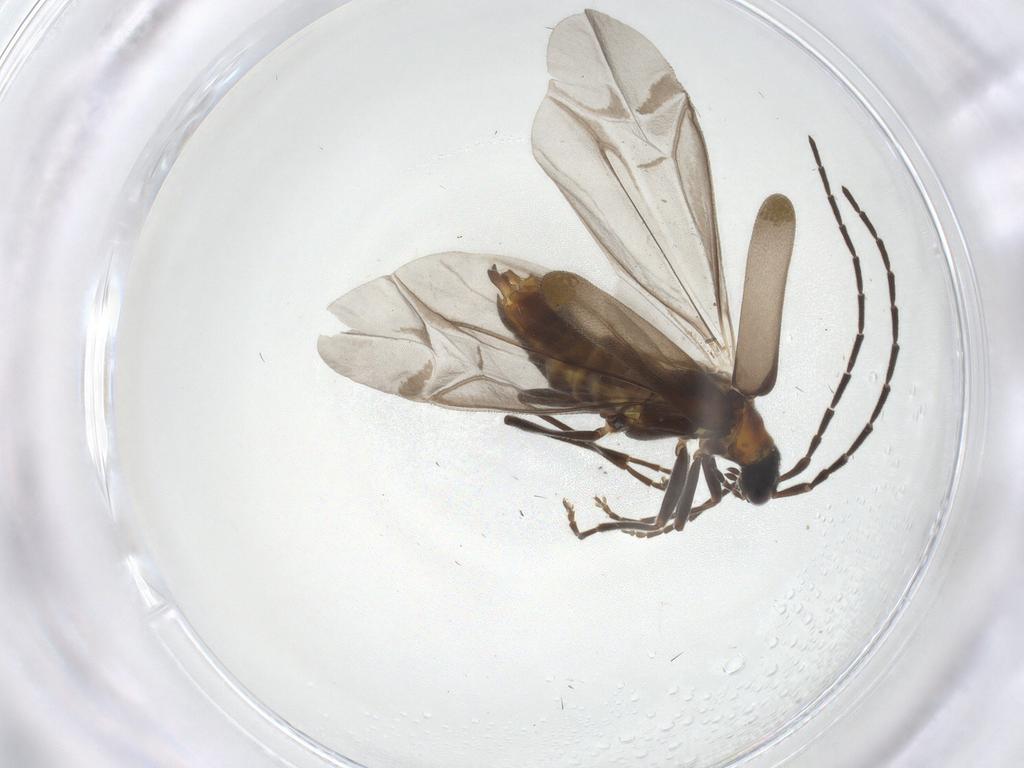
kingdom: Animalia
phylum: Arthropoda
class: Insecta
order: Coleoptera
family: Cantharidae
